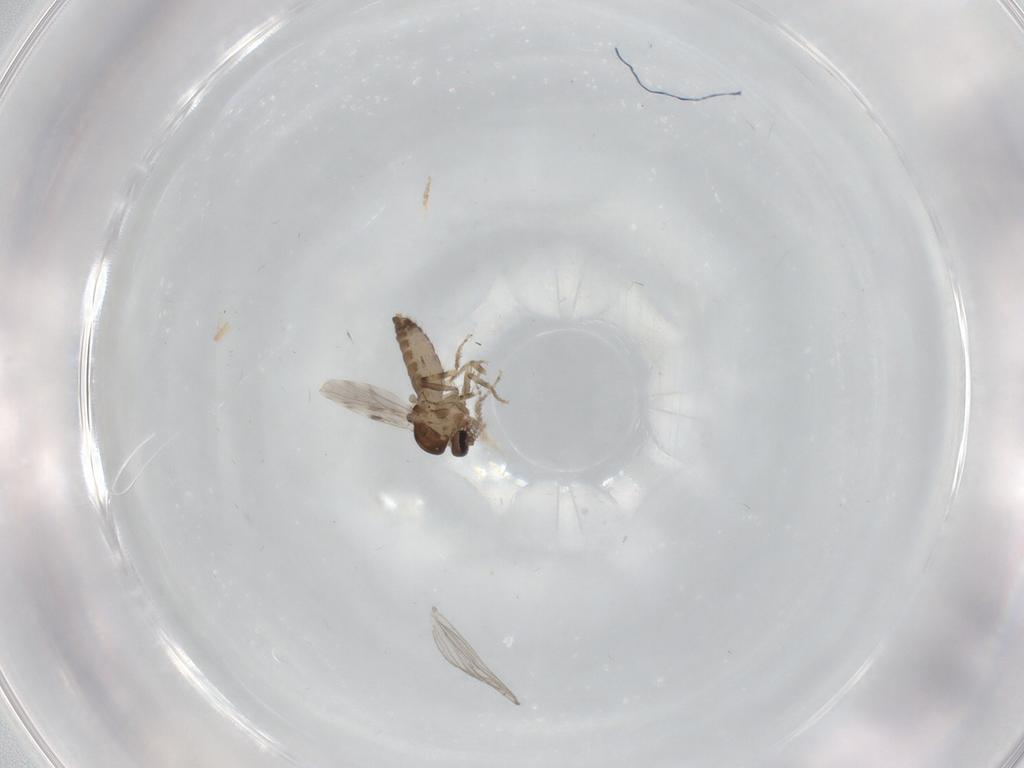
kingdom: Animalia
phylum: Arthropoda
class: Insecta
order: Diptera
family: Ceratopogonidae
